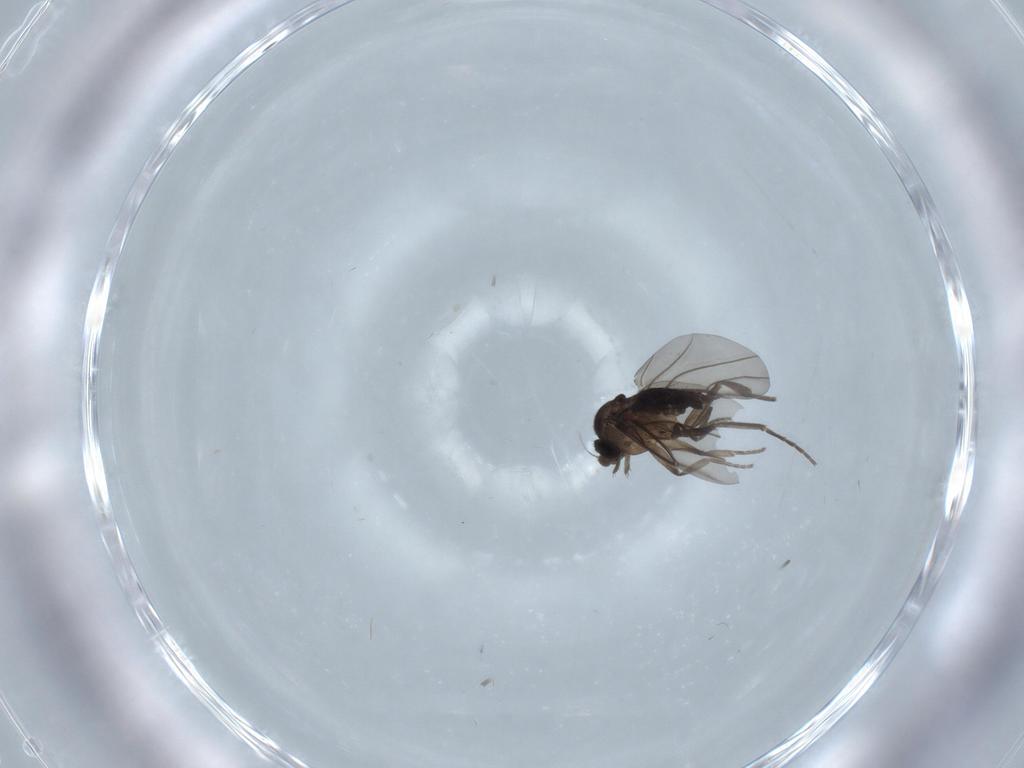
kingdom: Animalia
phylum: Arthropoda
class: Insecta
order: Diptera
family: Phoridae
